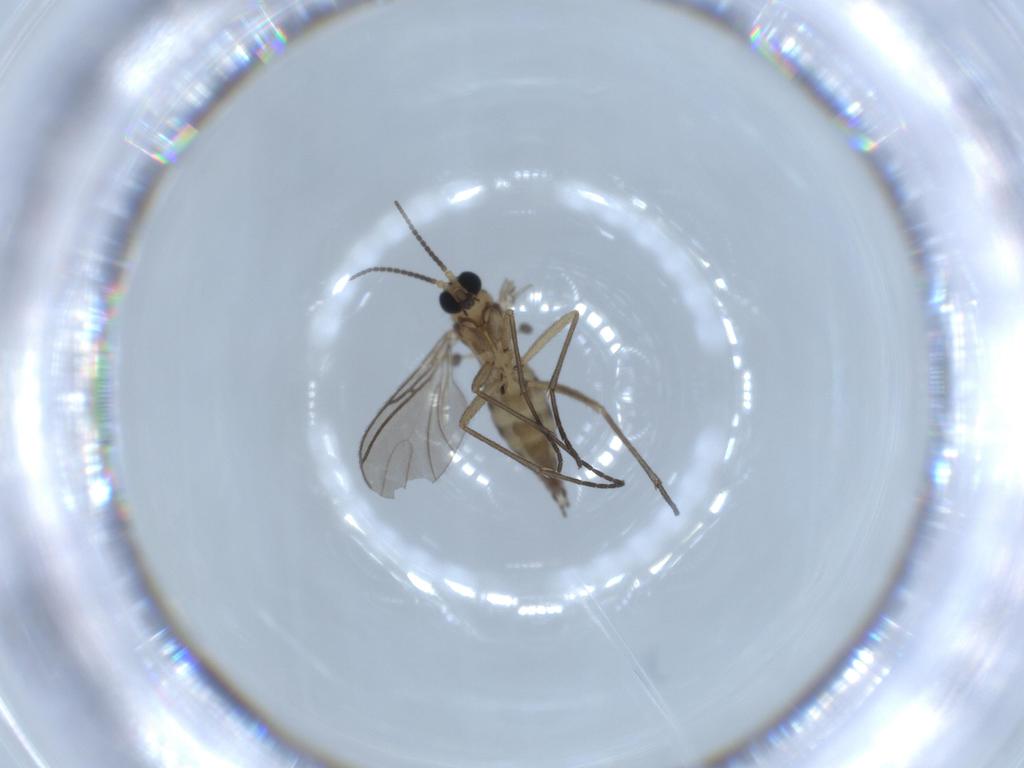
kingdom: Animalia
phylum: Arthropoda
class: Insecta
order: Diptera
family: Sciaridae
